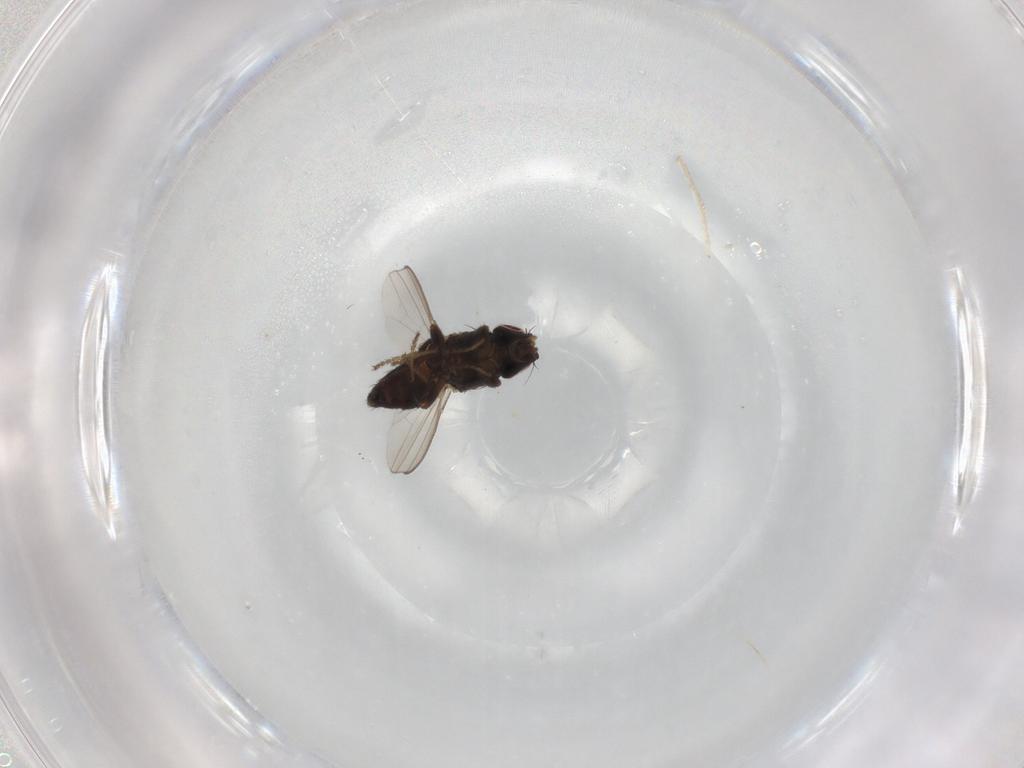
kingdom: Animalia
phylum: Arthropoda
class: Insecta
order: Diptera
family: Milichiidae
